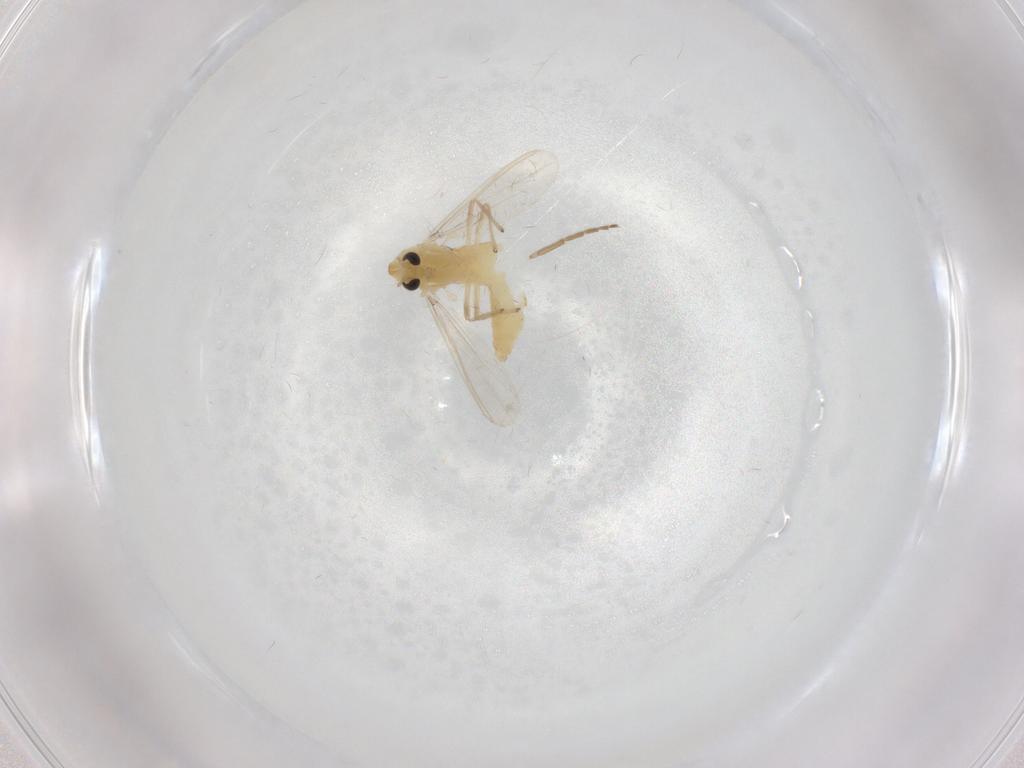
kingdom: Animalia
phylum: Arthropoda
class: Insecta
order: Diptera
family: Chironomidae
